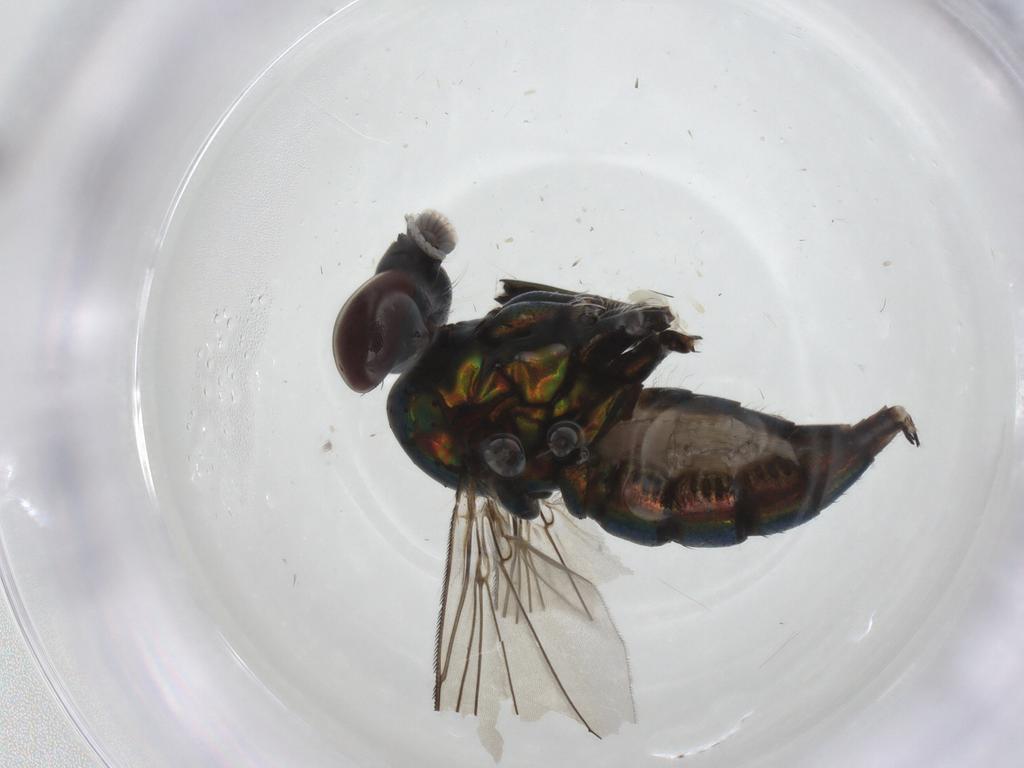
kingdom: Animalia
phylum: Arthropoda
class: Insecta
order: Diptera
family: Dolichopodidae
